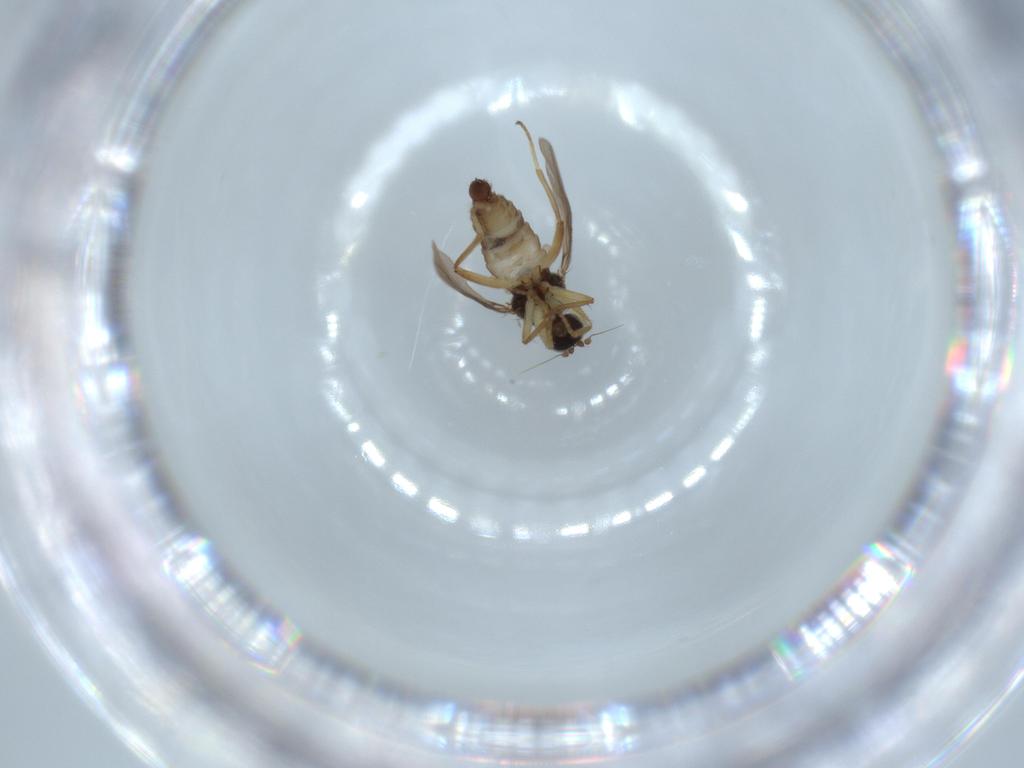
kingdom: Animalia
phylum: Arthropoda
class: Insecta
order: Diptera
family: Hybotidae
